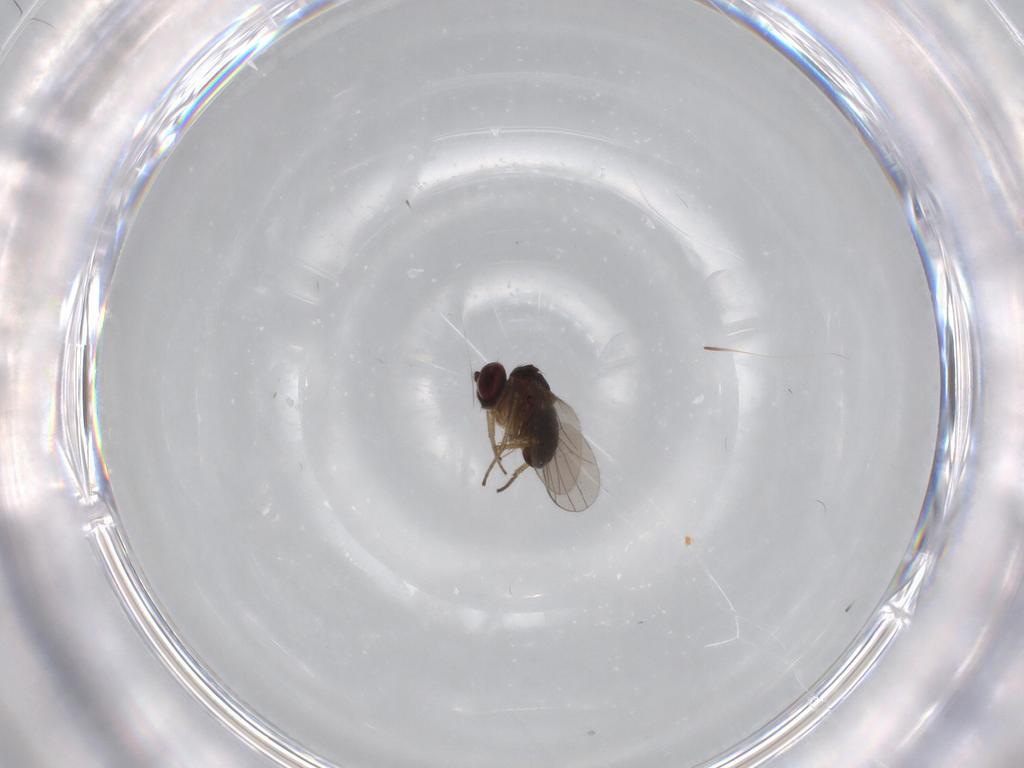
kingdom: Animalia
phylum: Arthropoda
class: Insecta
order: Diptera
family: Dolichopodidae
